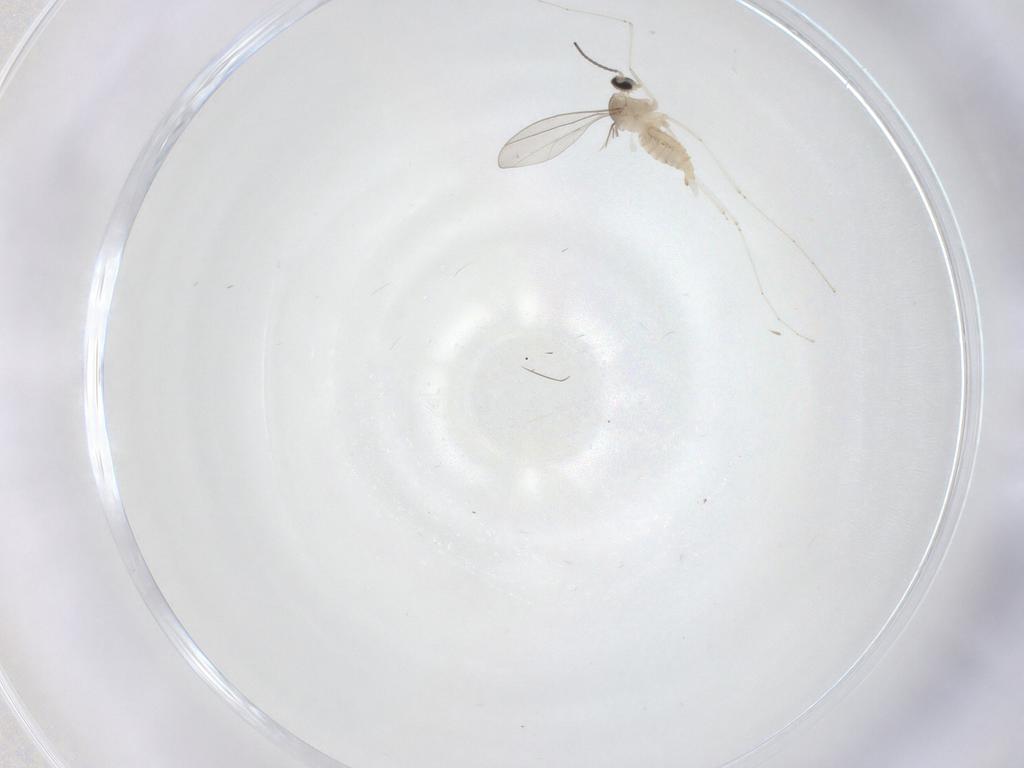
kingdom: Animalia
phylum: Arthropoda
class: Insecta
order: Diptera
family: Cecidomyiidae
